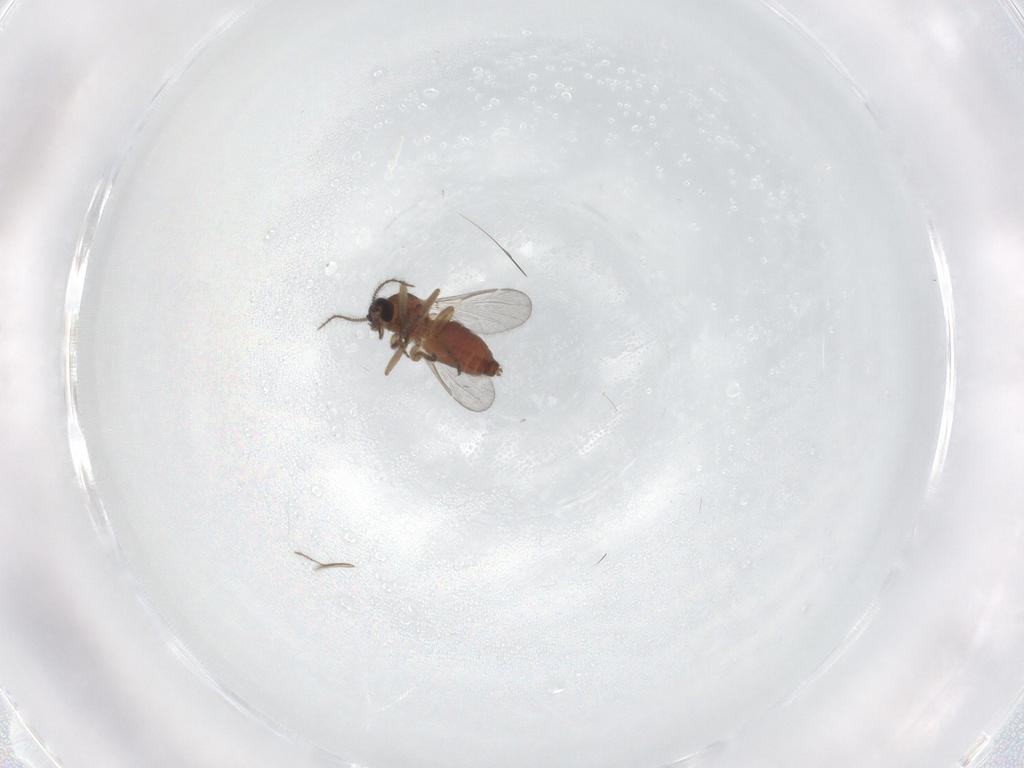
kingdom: Animalia
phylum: Arthropoda
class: Insecta
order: Diptera
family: Ceratopogonidae
